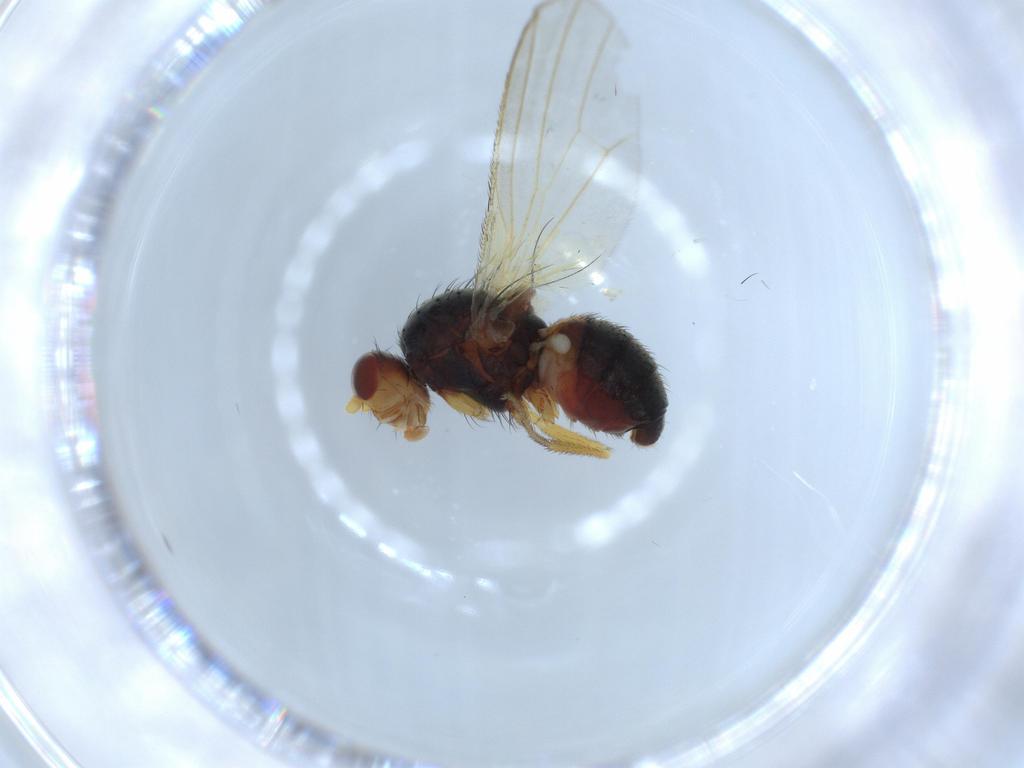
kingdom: Animalia
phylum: Arthropoda
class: Insecta
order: Diptera
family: Heleomyzidae
